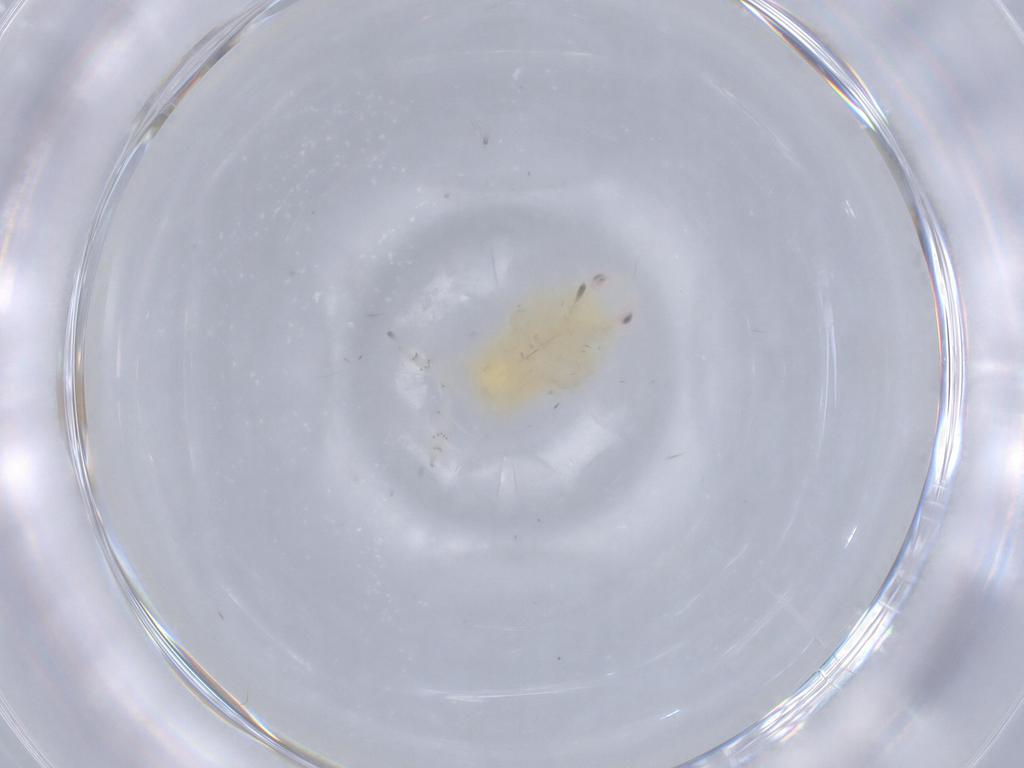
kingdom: Animalia
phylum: Arthropoda
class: Insecta
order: Hemiptera
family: Flatidae
